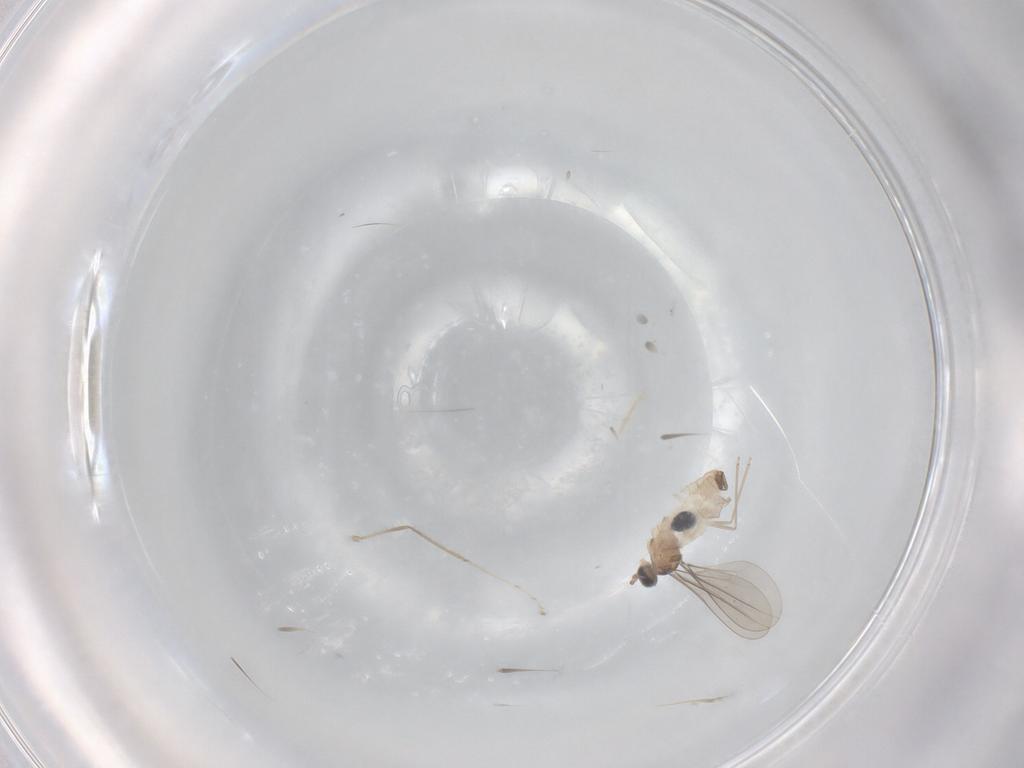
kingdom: Animalia
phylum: Arthropoda
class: Insecta
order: Diptera
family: Cecidomyiidae
